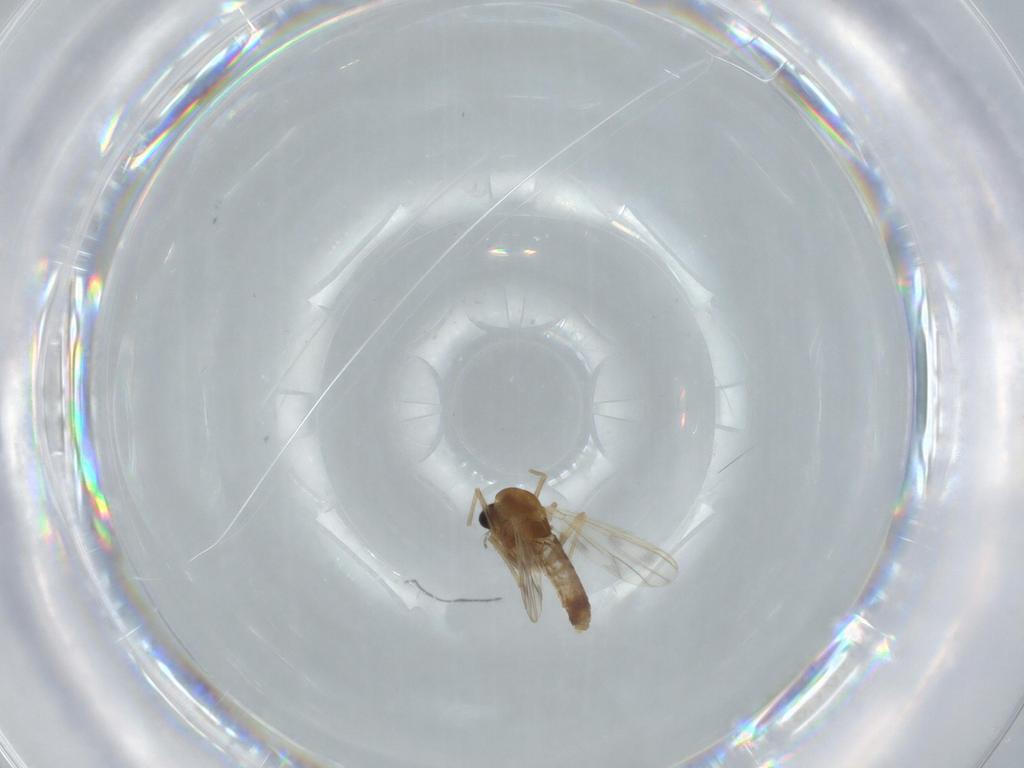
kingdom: Animalia
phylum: Arthropoda
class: Insecta
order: Diptera
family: Chironomidae
